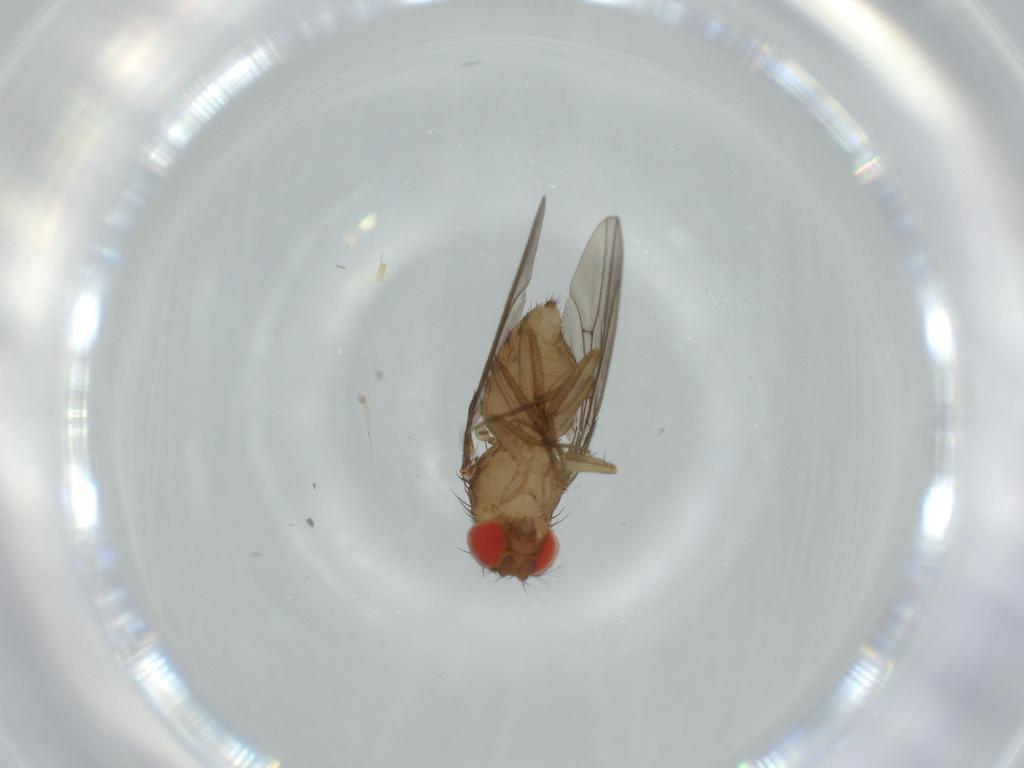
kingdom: Animalia
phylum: Arthropoda
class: Insecta
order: Diptera
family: Drosophilidae
